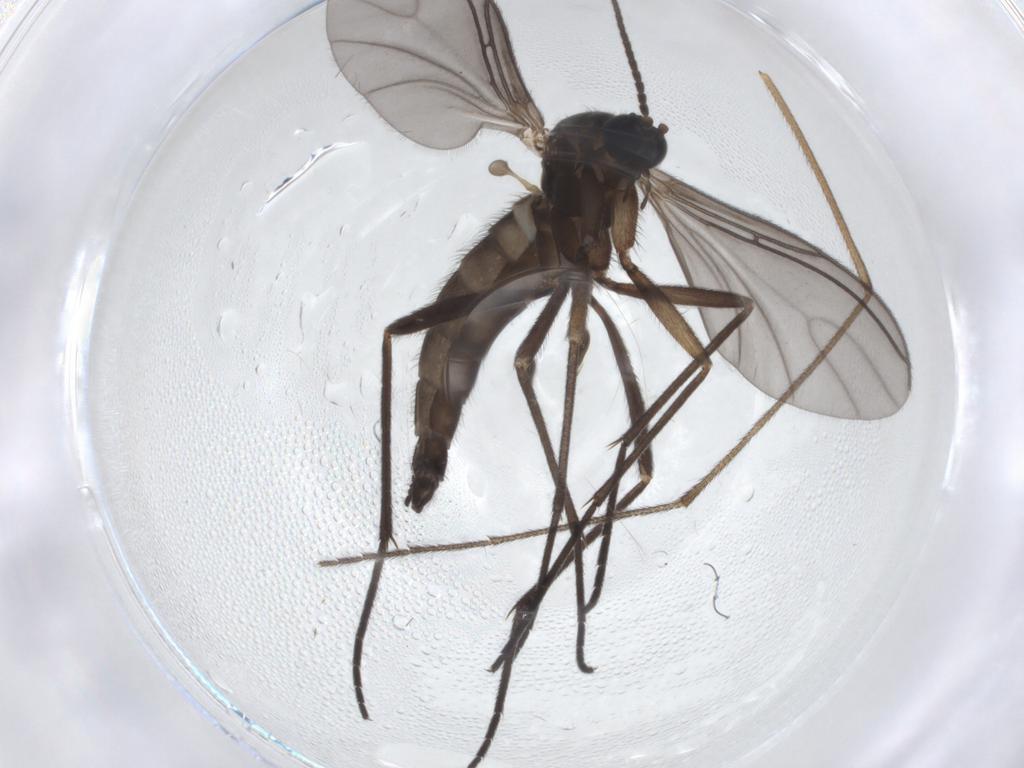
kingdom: Animalia
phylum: Arthropoda
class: Insecta
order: Diptera
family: Sciaridae
